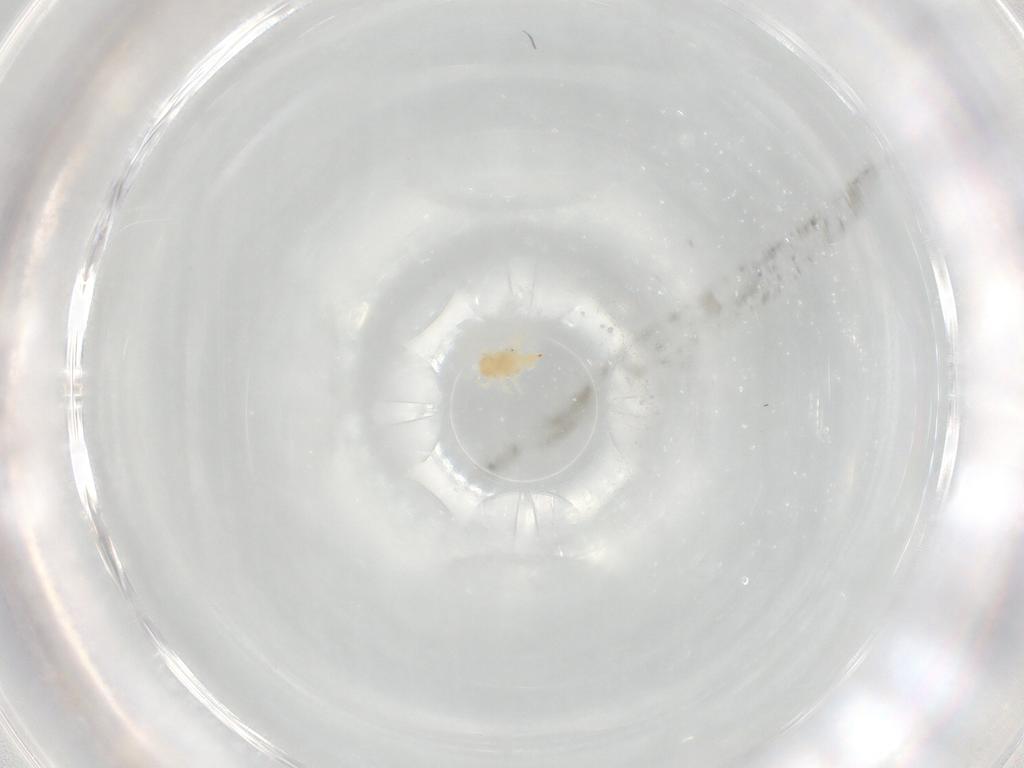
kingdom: Animalia
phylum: Arthropoda
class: Arachnida
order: Trombidiformes
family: Bdellidae
